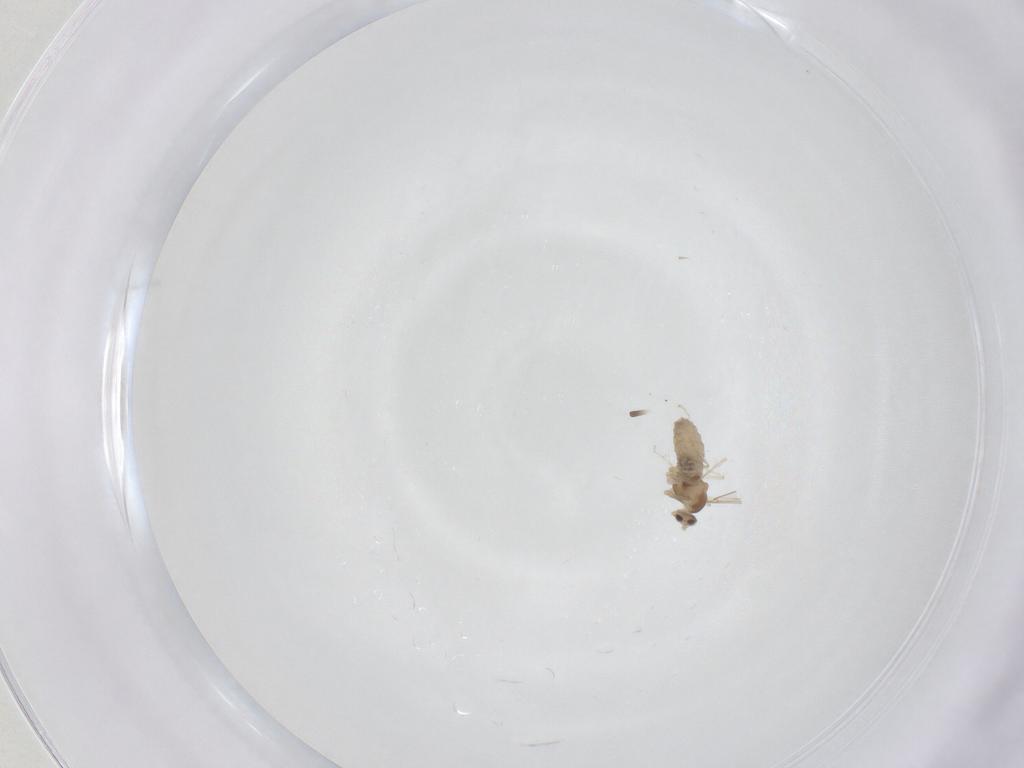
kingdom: Animalia
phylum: Arthropoda
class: Insecta
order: Diptera
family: Cecidomyiidae
